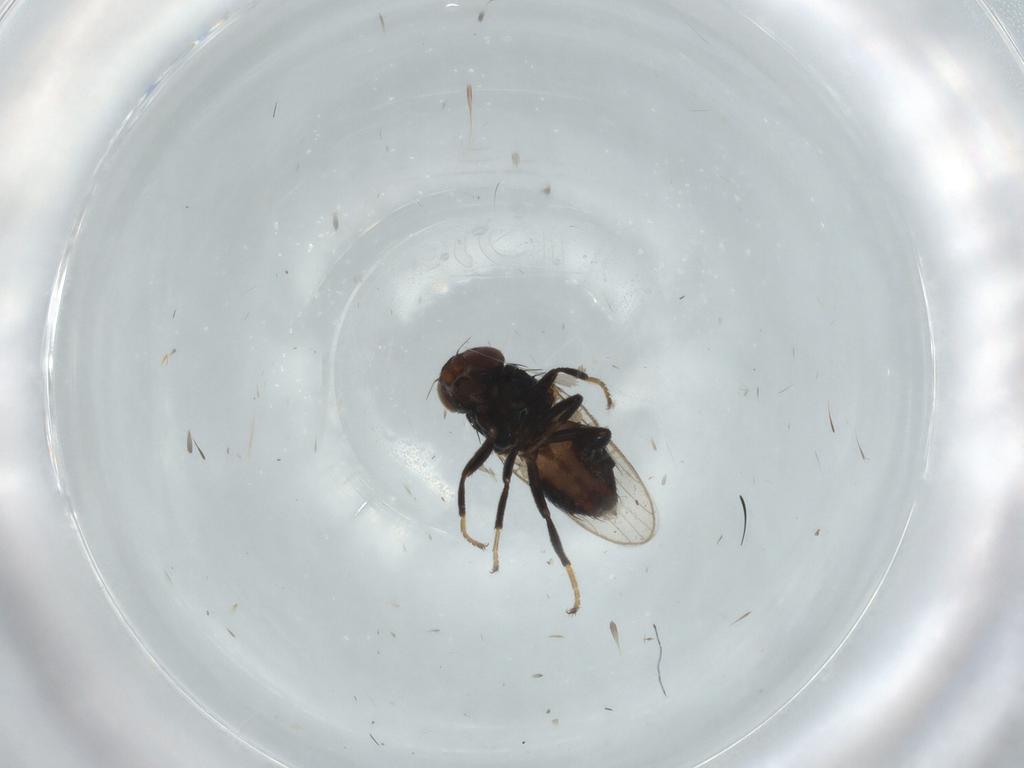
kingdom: Animalia
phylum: Arthropoda
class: Insecta
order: Diptera
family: Chloropidae
